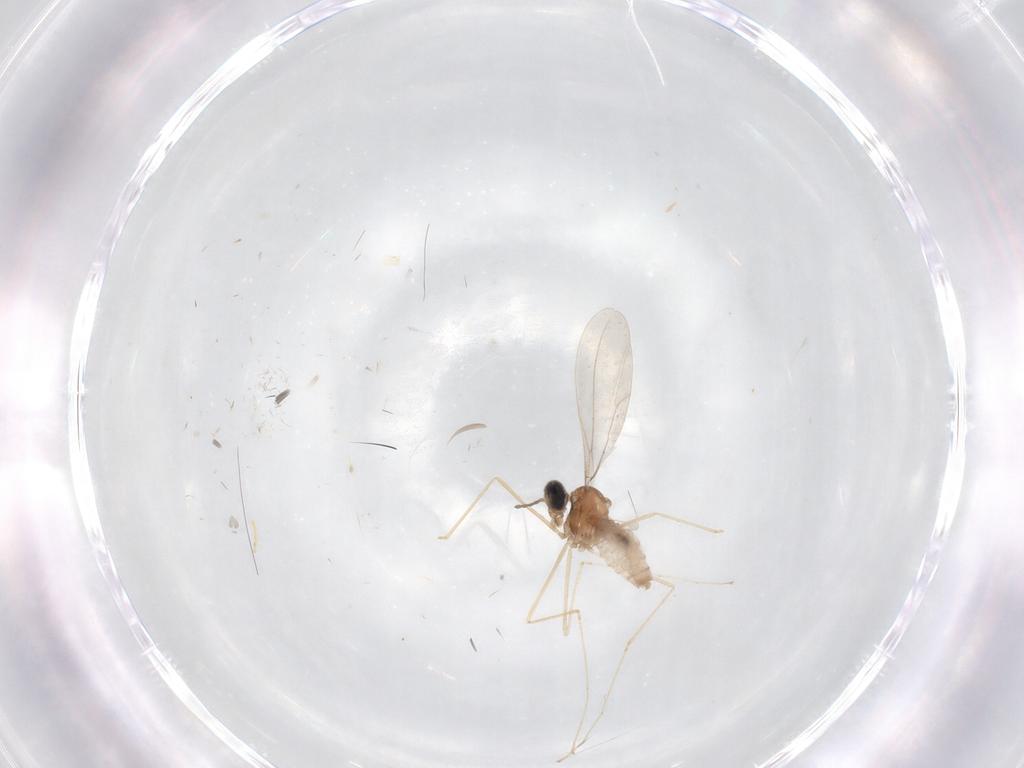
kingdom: Animalia
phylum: Arthropoda
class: Insecta
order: Diptera
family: Cecidomyiidae
